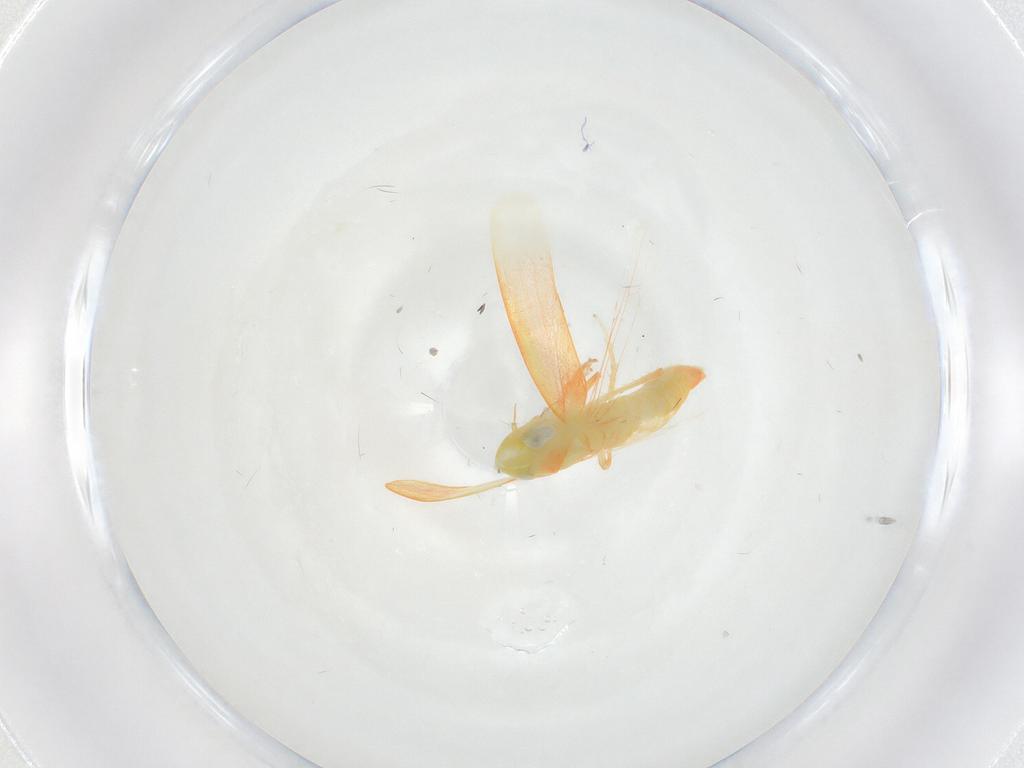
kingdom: Animalia
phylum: Arthropoda
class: Insecta
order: Hemiptera
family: Cicadellidae
